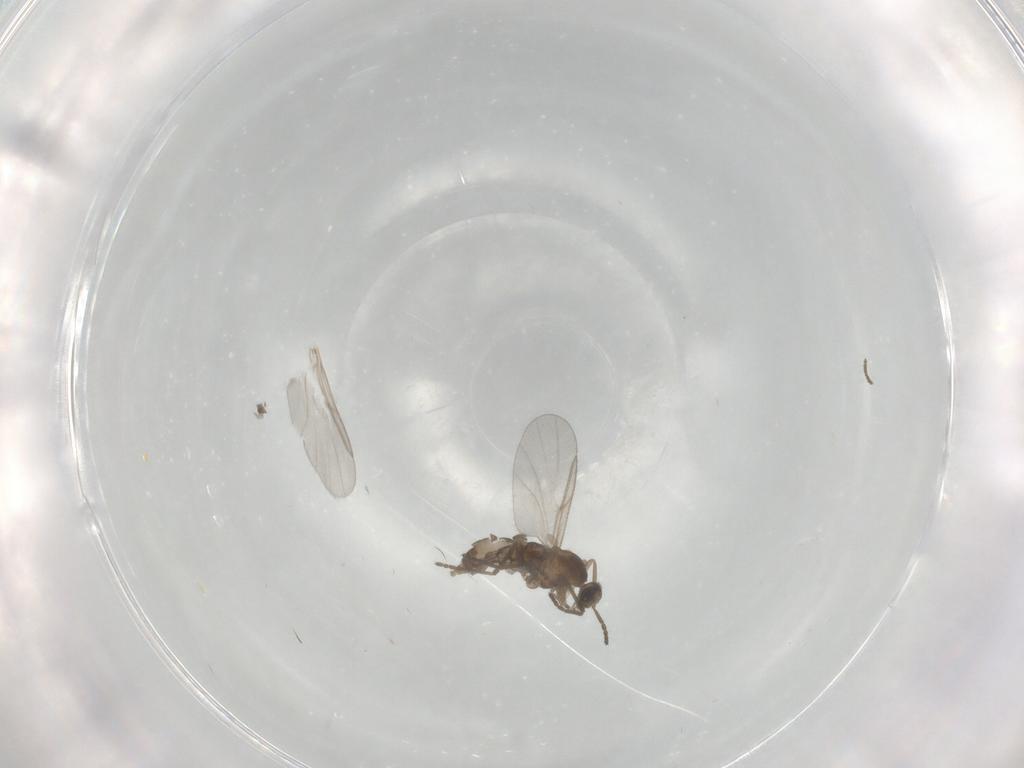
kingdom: Animalia
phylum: Arthropoda
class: Insecta
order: Diptera
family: Cecidomyiidae
